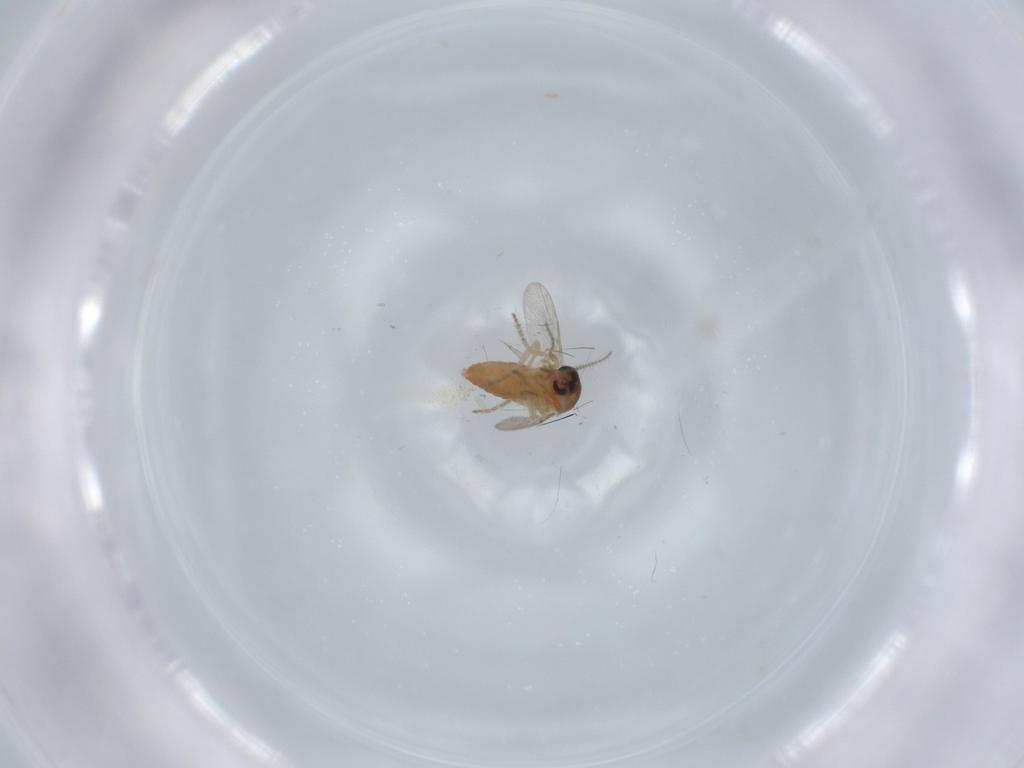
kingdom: Animalia
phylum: Arthropoda
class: Insecta
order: Diptera
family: Ceratopogonidae
